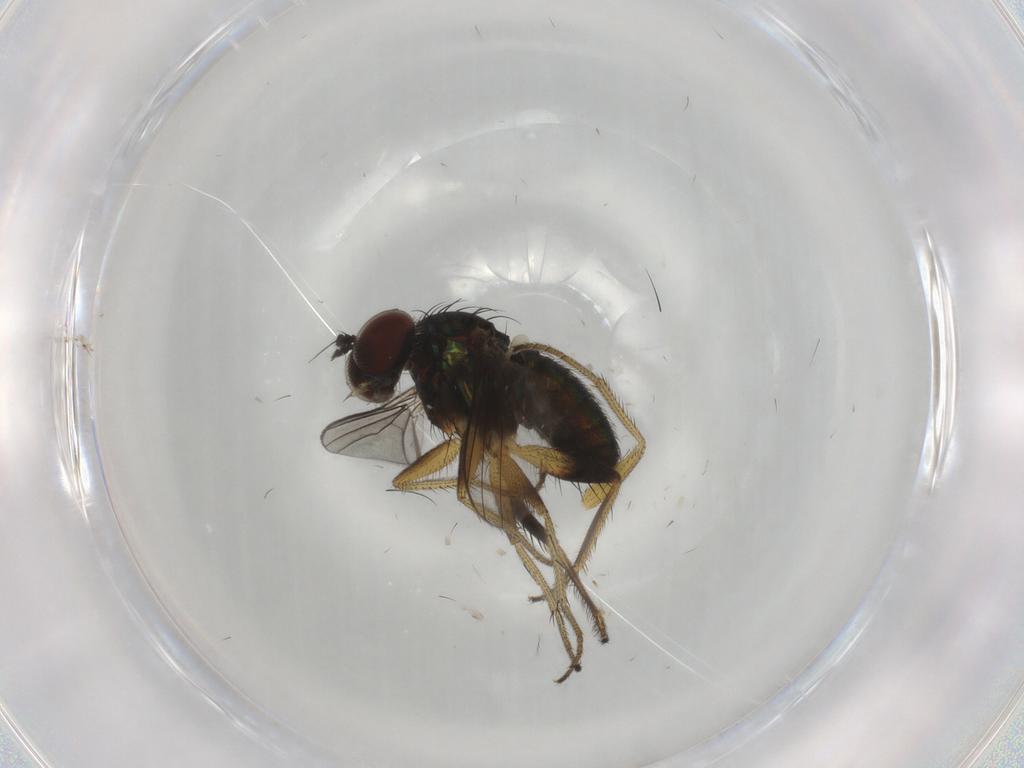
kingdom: Animalia
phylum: Arthropoda
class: Insecta
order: Diptera
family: Dolichopodidae
